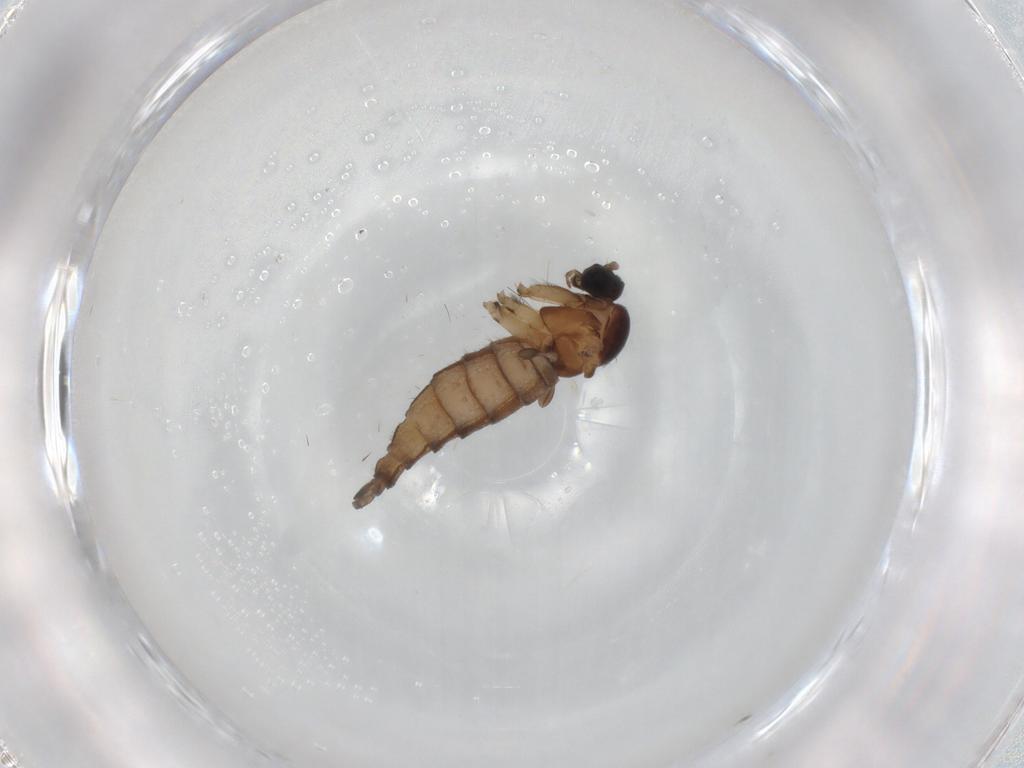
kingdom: Animalia
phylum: Arthropoda
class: Insecta
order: Diptera
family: Sciaridae
